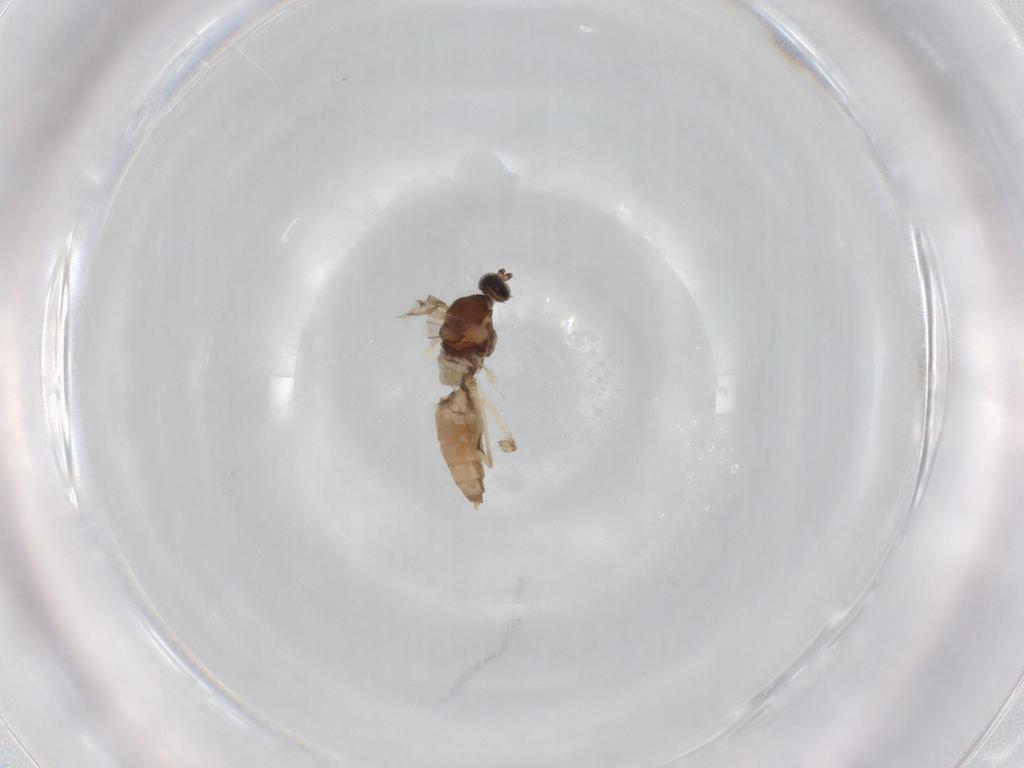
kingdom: Animalia
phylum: Arthropoda
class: Insecta
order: Diptera
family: Cecidomyiidae
